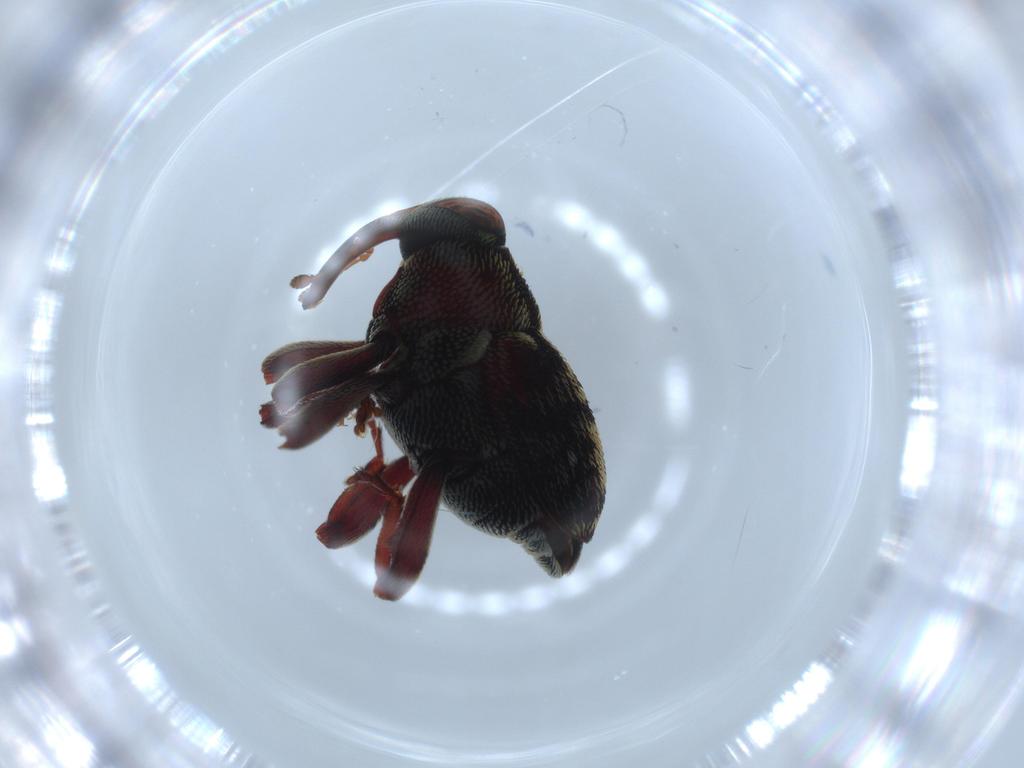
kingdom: Animalia
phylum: Arthropoda
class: Insecta
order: Coleoptera
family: Curculionidae
